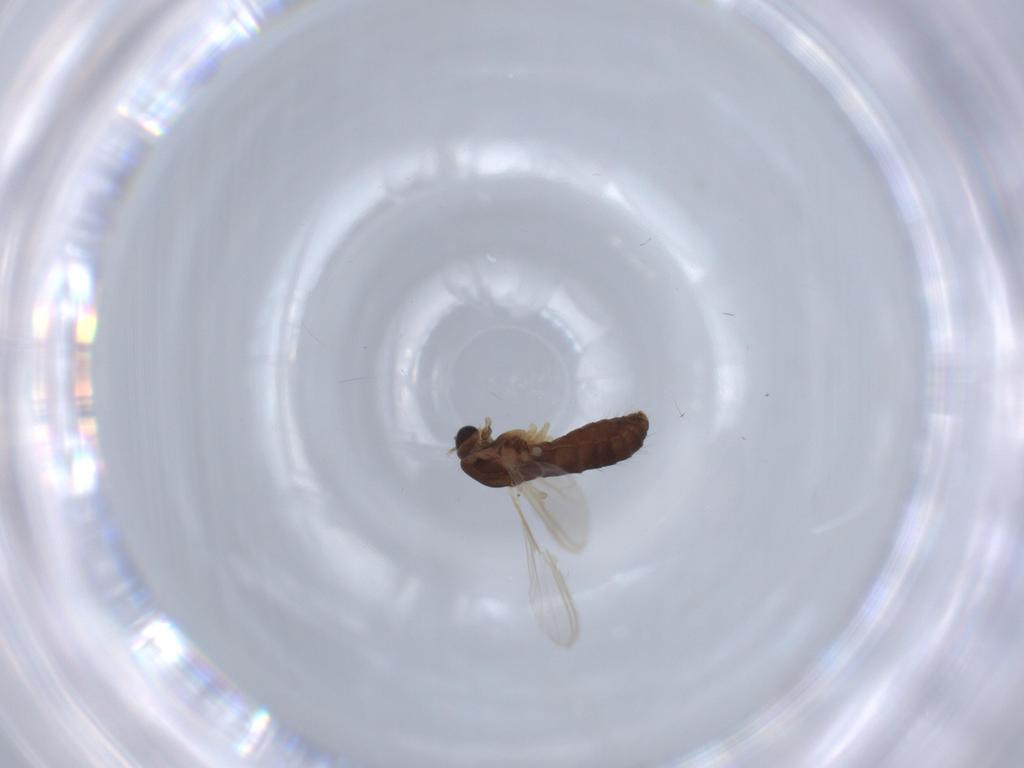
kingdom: Animalia
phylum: Arthropoda
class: Insecta
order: Diptera
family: Chironomidae
